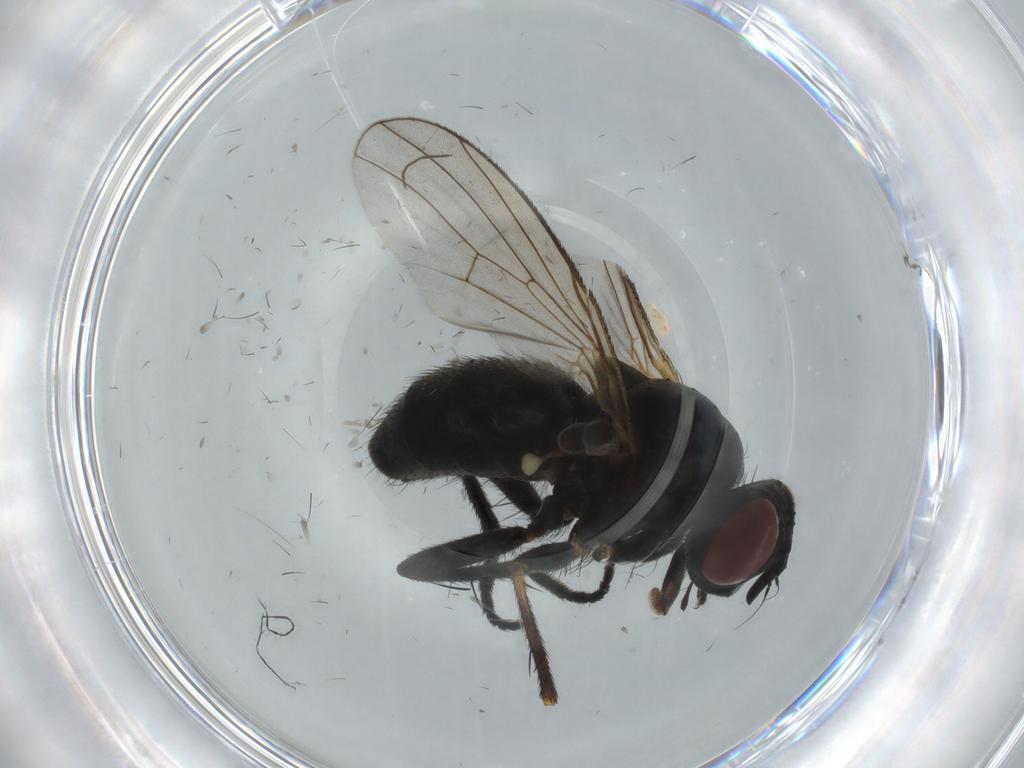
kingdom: Animalia
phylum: Arthropoda
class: Insecta
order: Diptera
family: Muscidae
